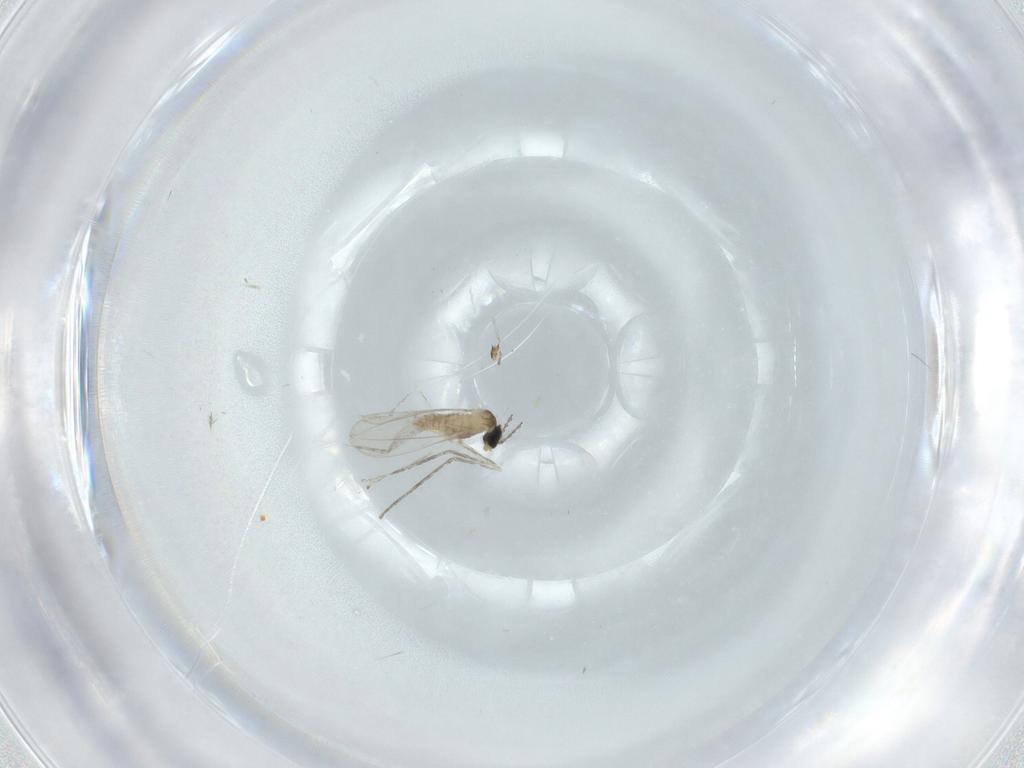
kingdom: Animalia
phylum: Arthropoda
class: Insecta
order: Diptera
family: Cecidomyiidae
